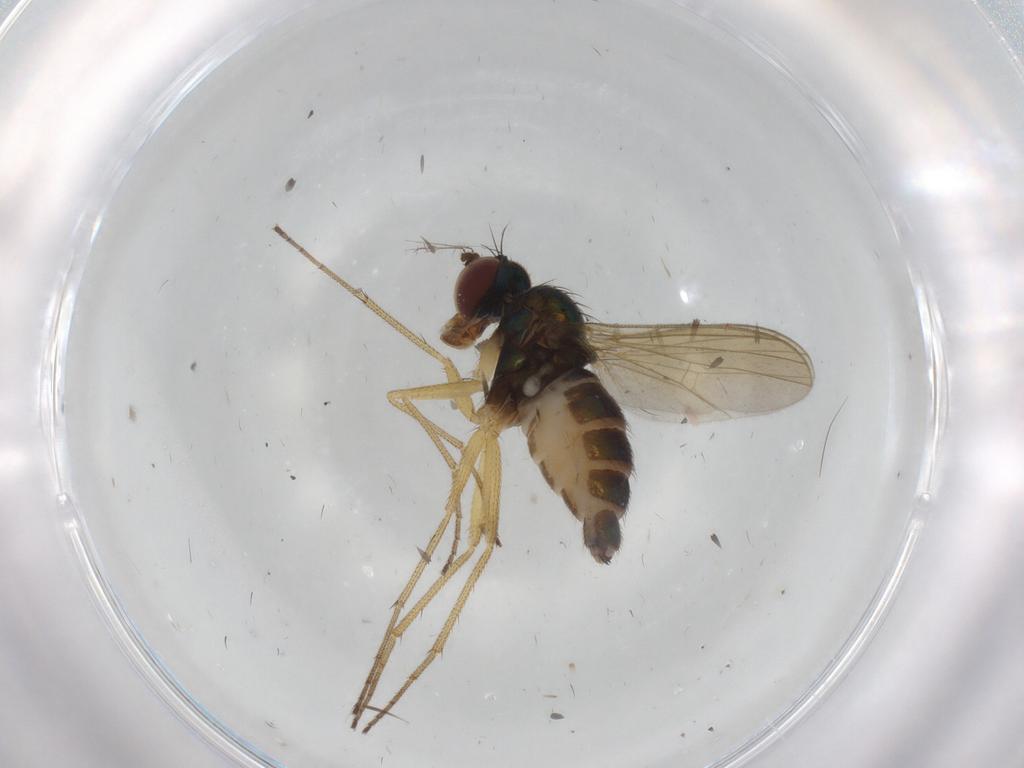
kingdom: Animalia
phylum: Arthropoda
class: Insecta
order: Diptera
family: Dolichopodidae
